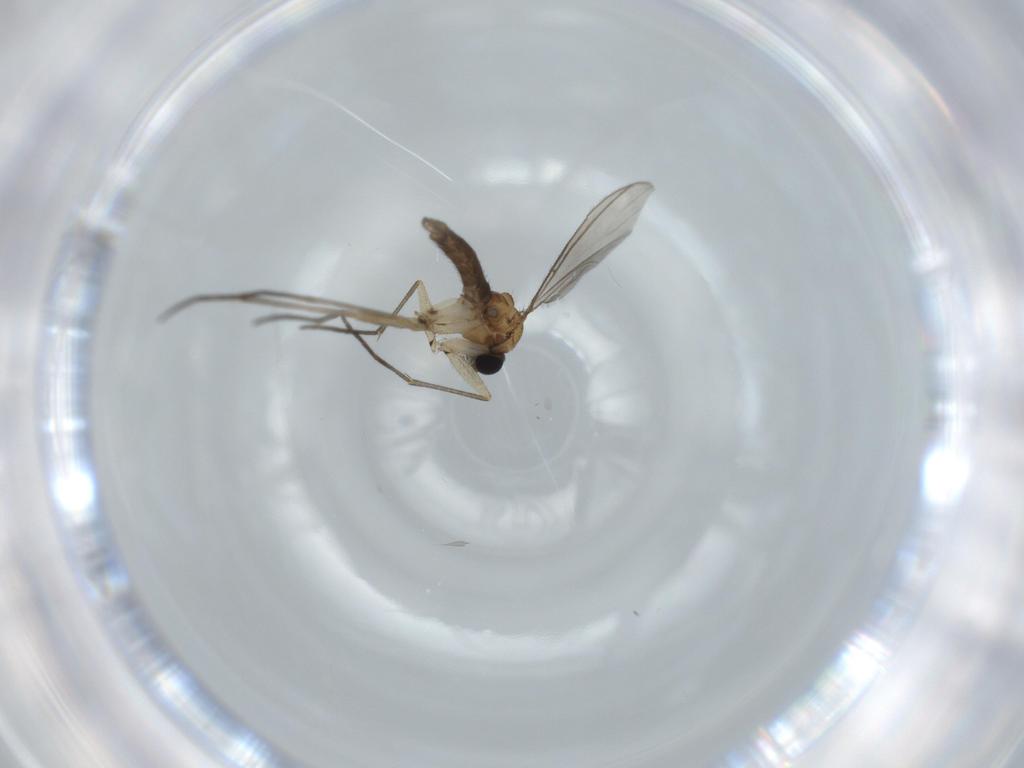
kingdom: Animalia
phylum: Arthropoda
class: Insecta
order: Diptera
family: Sciaridae
